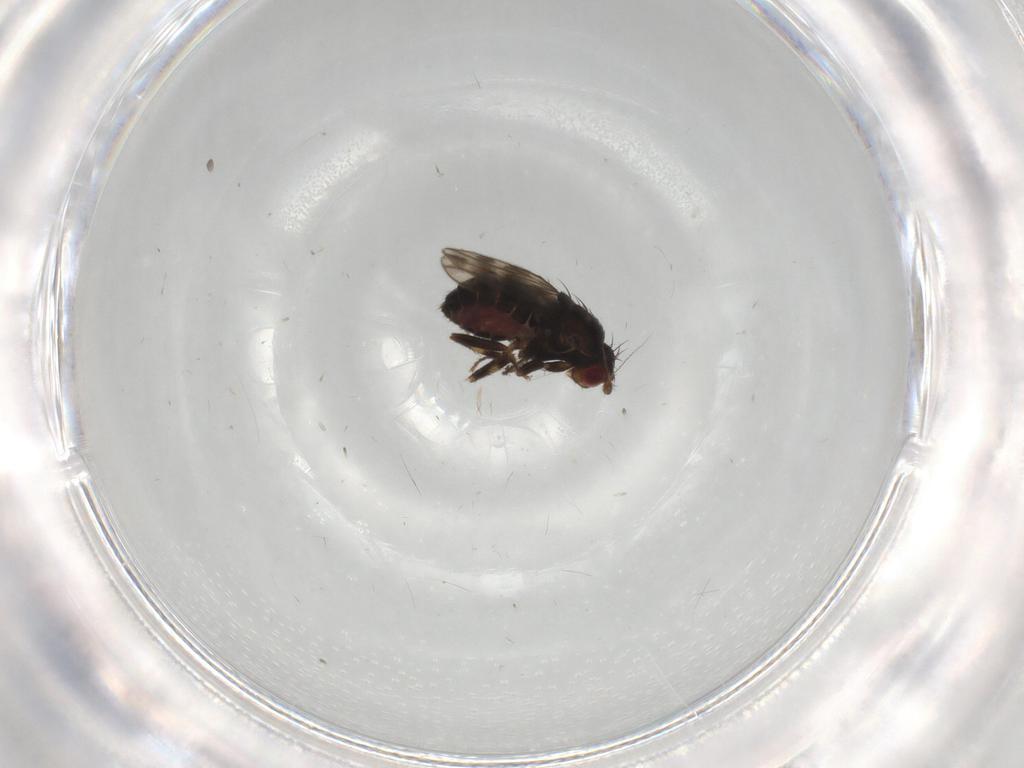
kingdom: Animalia
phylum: Arthropoda
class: Insecta
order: Diptera
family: Sphaeroceridae
